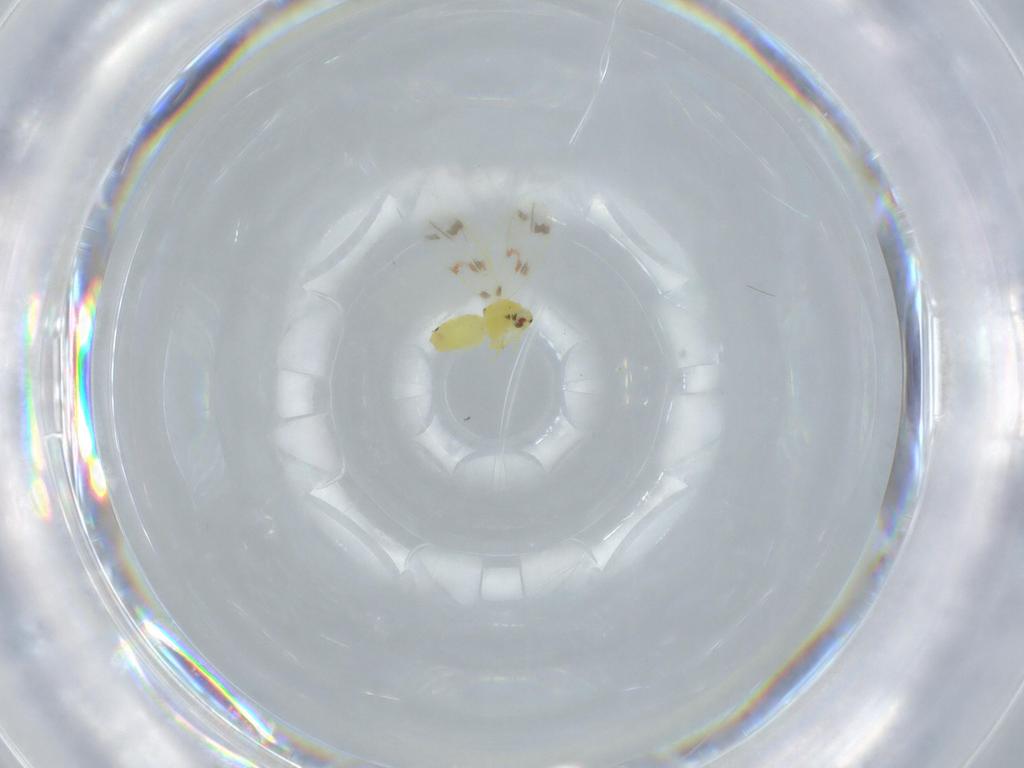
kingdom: Animalia
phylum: Arthropoda
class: Insecta
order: Hemiptera
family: Aleyrodidae
